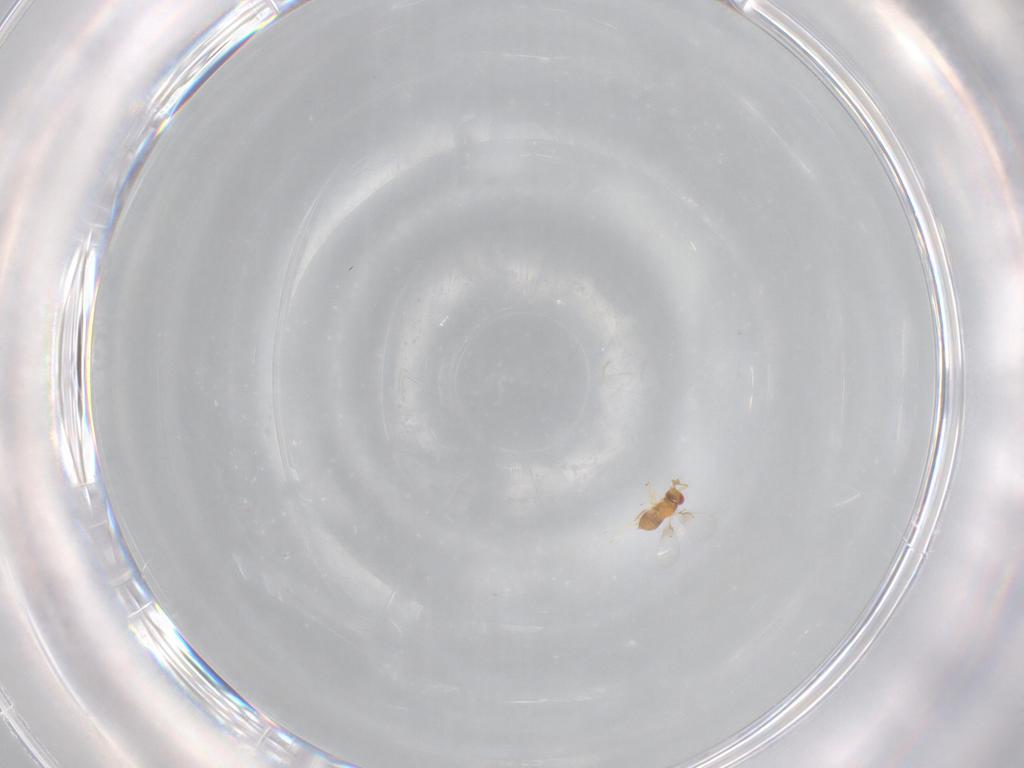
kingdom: Animalia
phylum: Arthropoda
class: Insecta
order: Hymenoptera
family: Trichogrammatidae
